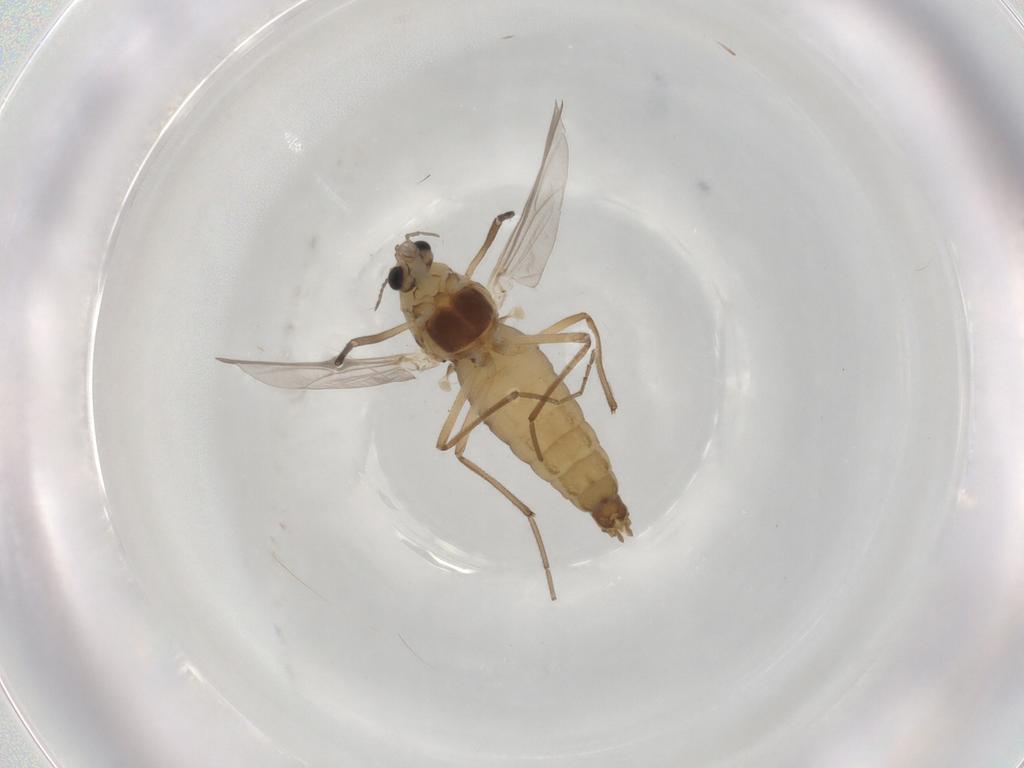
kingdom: Animalia
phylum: Arthropoda
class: Insecta
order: Diptera
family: Chironomidae
